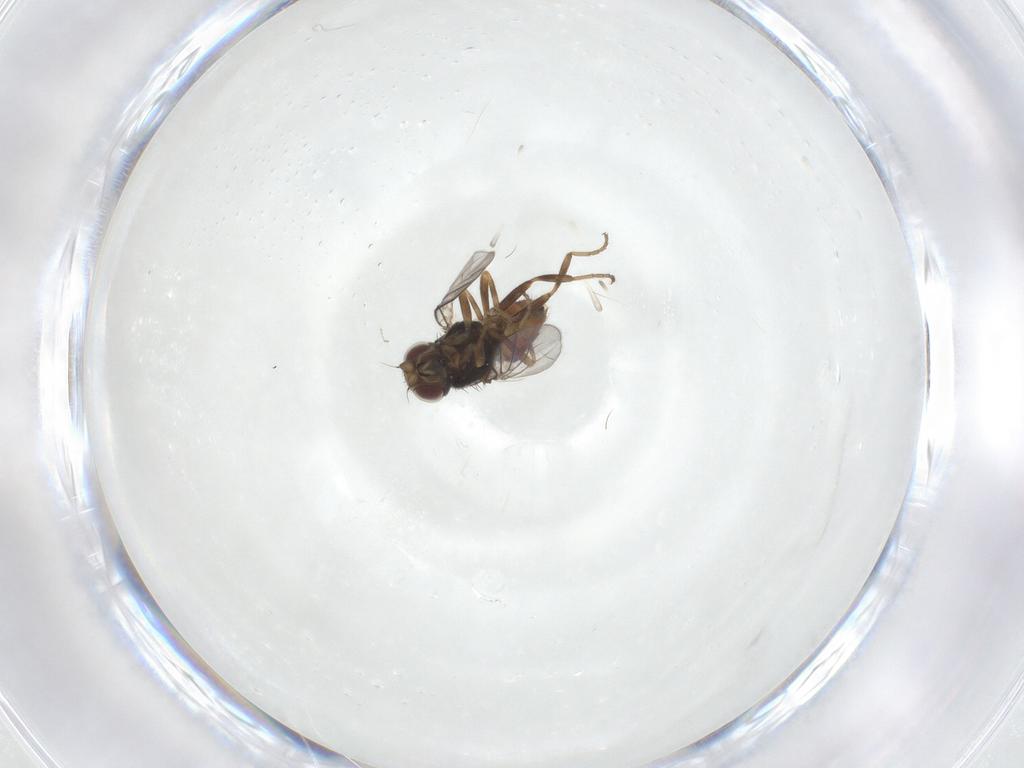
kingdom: Animalia
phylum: Arthropoda
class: Insecta
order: Diptera
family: Chloropidae
